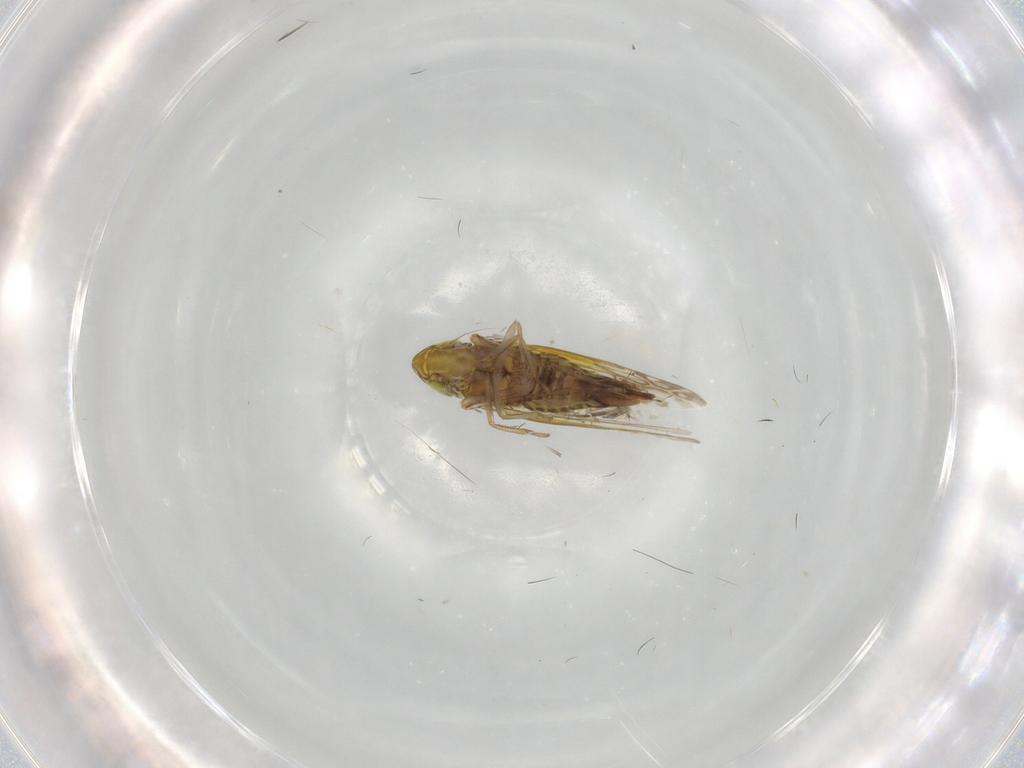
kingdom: Animalia
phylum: Arthropoda
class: Insecta
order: Hemiptera
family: Cicadellidae
